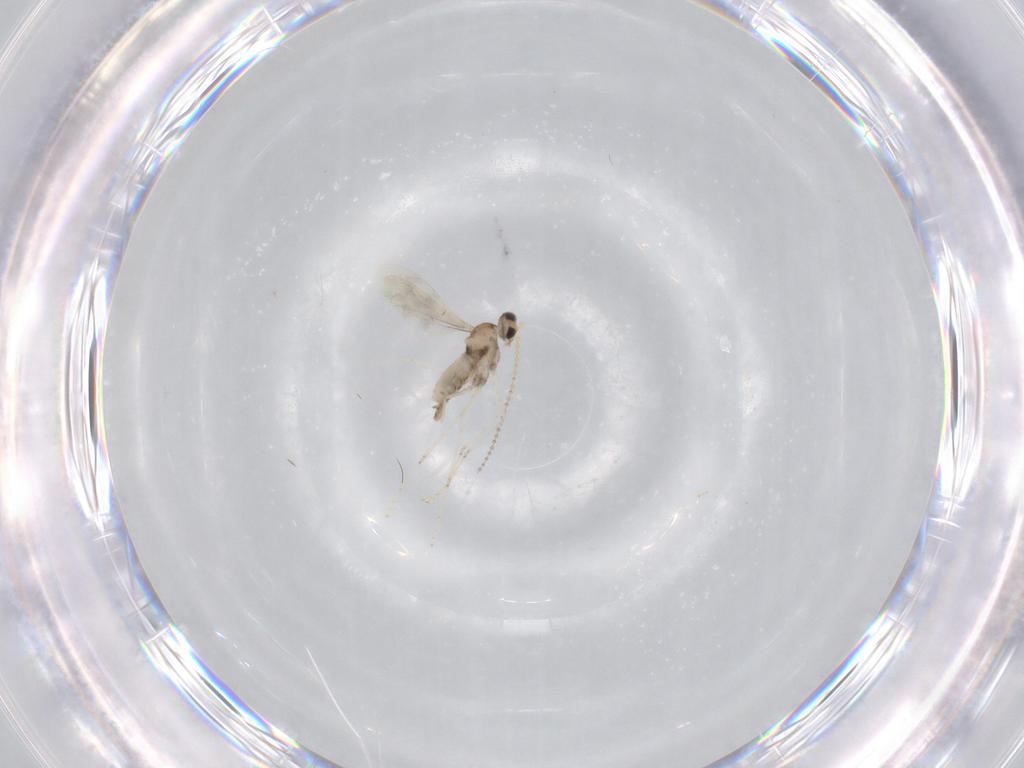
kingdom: Animalia
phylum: Arthropoda
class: Insecta
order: Diptera
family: Cecidomyiidae
